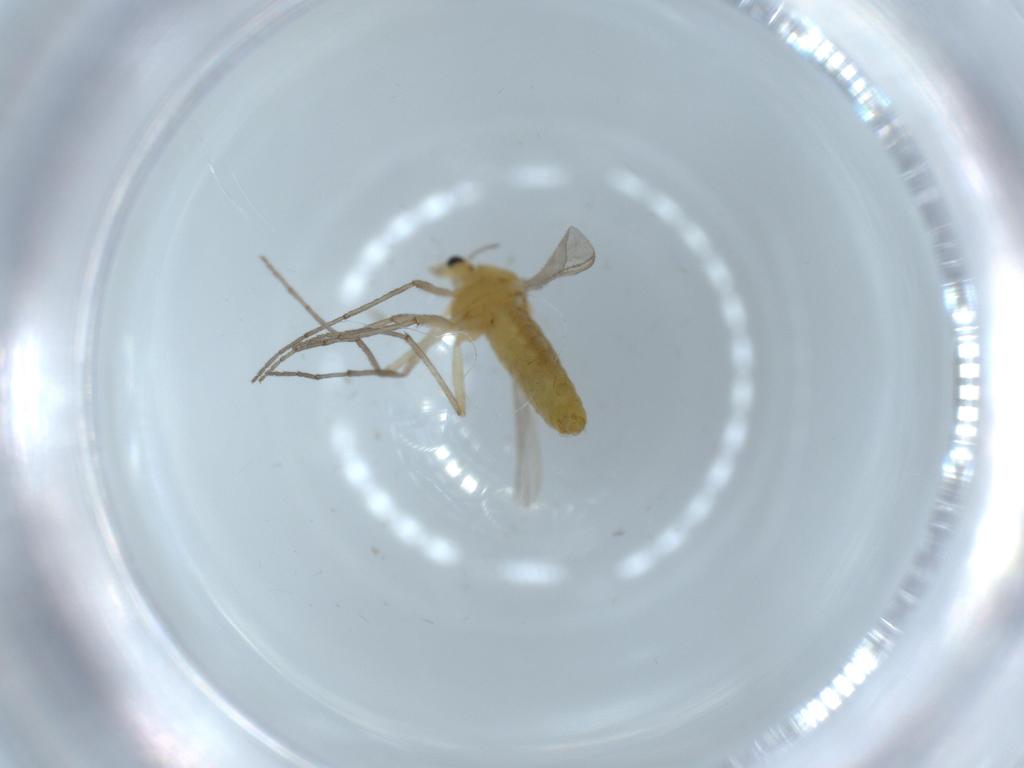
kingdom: Animalia
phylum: Arthropoda
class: Insecta
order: Diptera
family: Chironomidae
